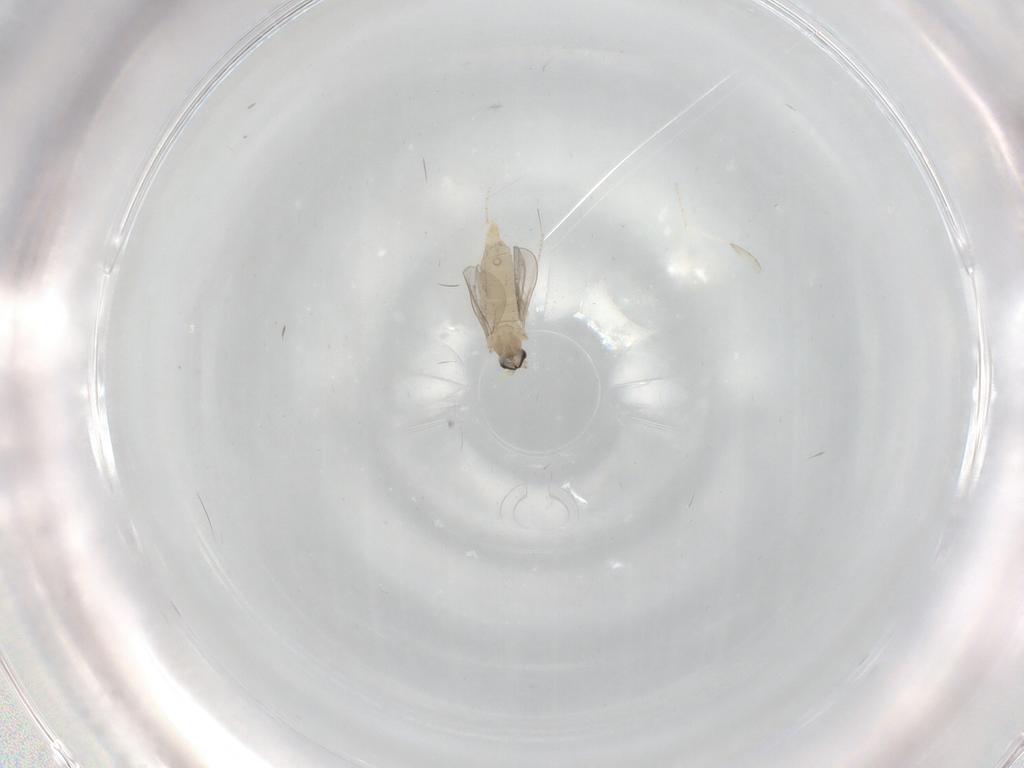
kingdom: Animalia
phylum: Arthropoda
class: Insecta
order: Diptera
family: Cecidomyiidae
